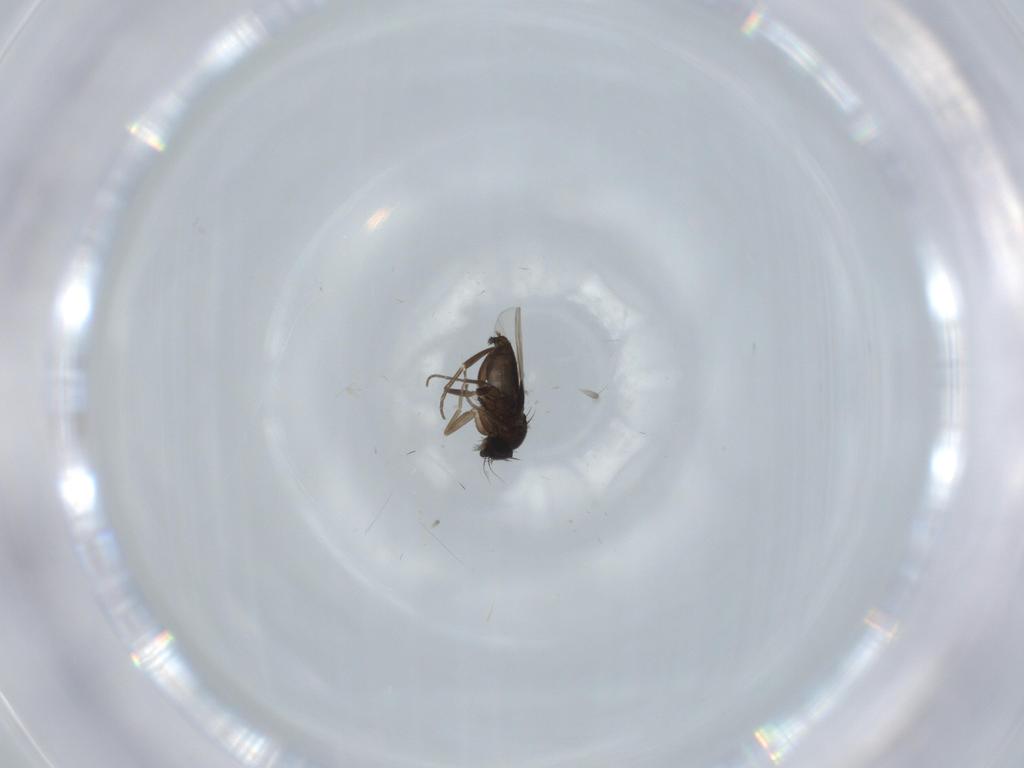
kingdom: Animalia
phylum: Arthropoda
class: Insecta
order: Diptera
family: Phoridae
